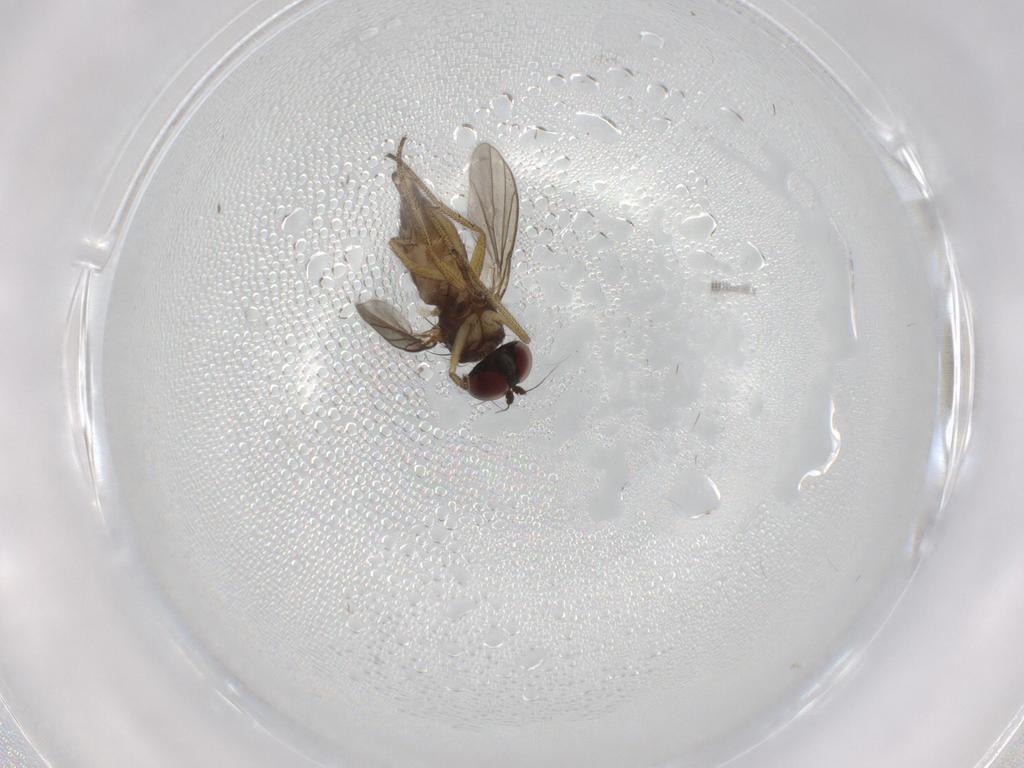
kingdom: Animalia
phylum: Arthropoda
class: Insecta
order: Diptera
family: Dolichopodidae
